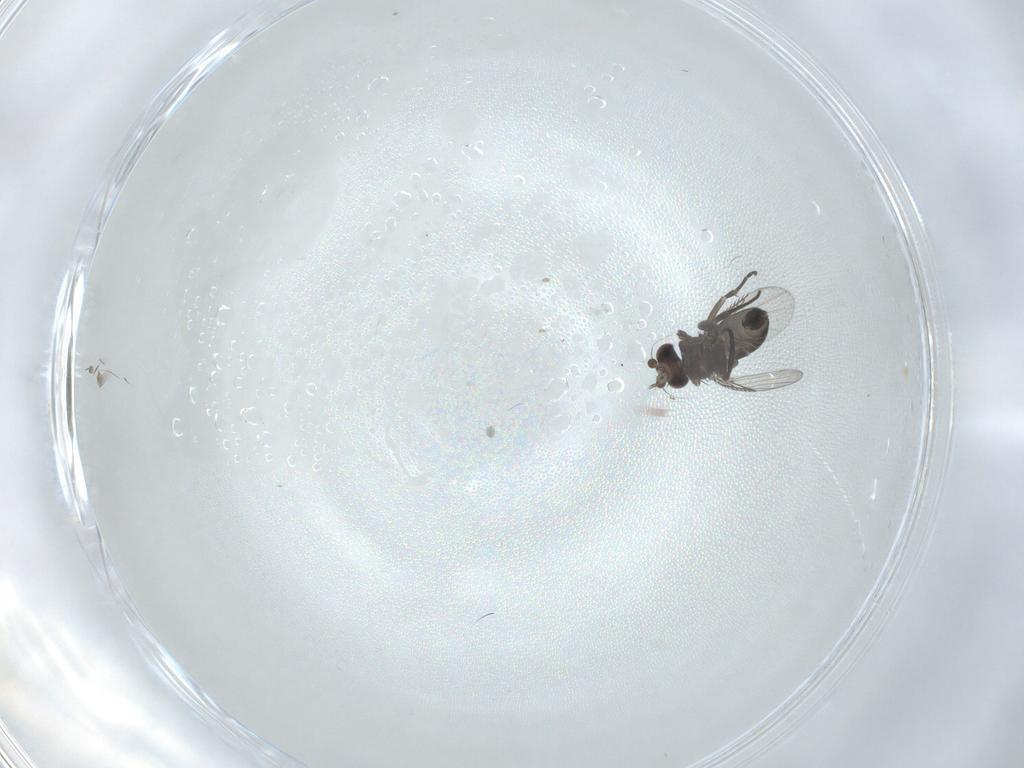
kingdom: Animalia
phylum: Arthropoda
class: Insecta
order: Diptera
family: Phoridae
